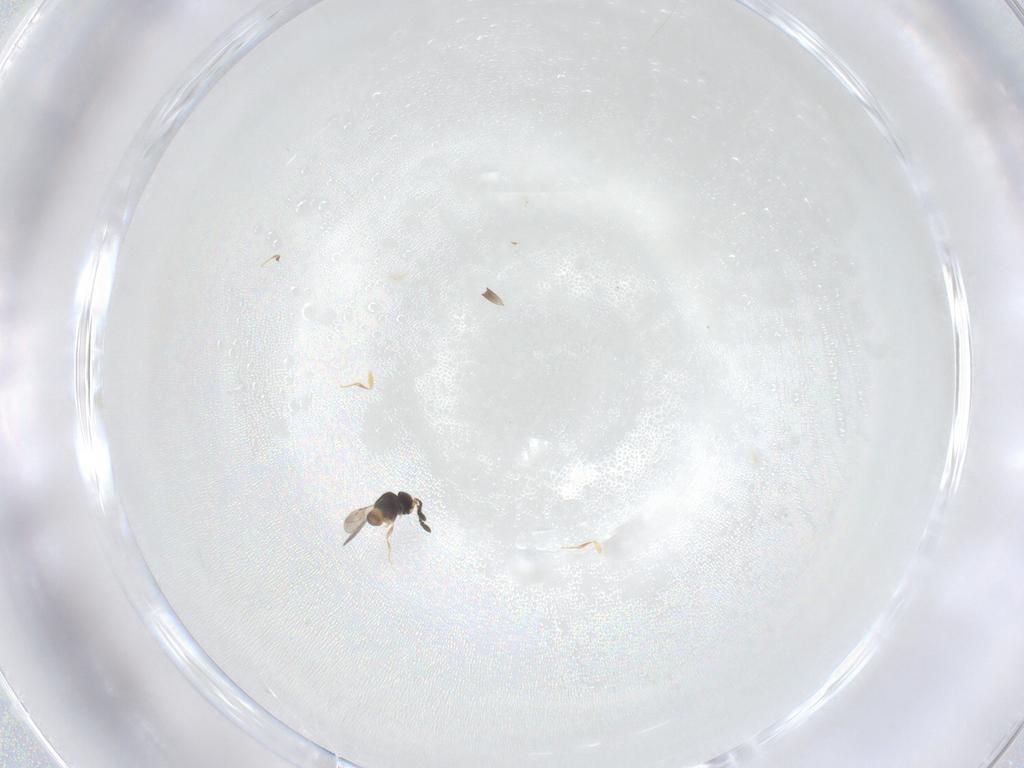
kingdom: Animalia
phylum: Arthropoda
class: Insecta
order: Hymenoptera
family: Ceraphronidae
